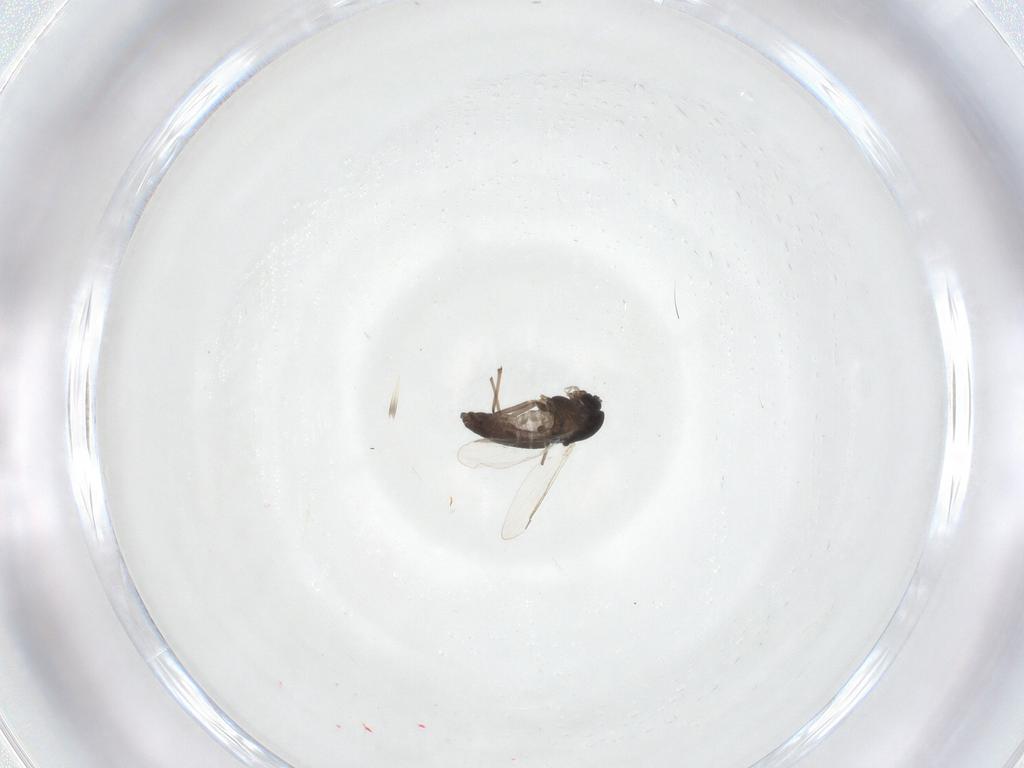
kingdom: Animalia
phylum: Arthropoda
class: Insecta
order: Diptera
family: Chironomidae
